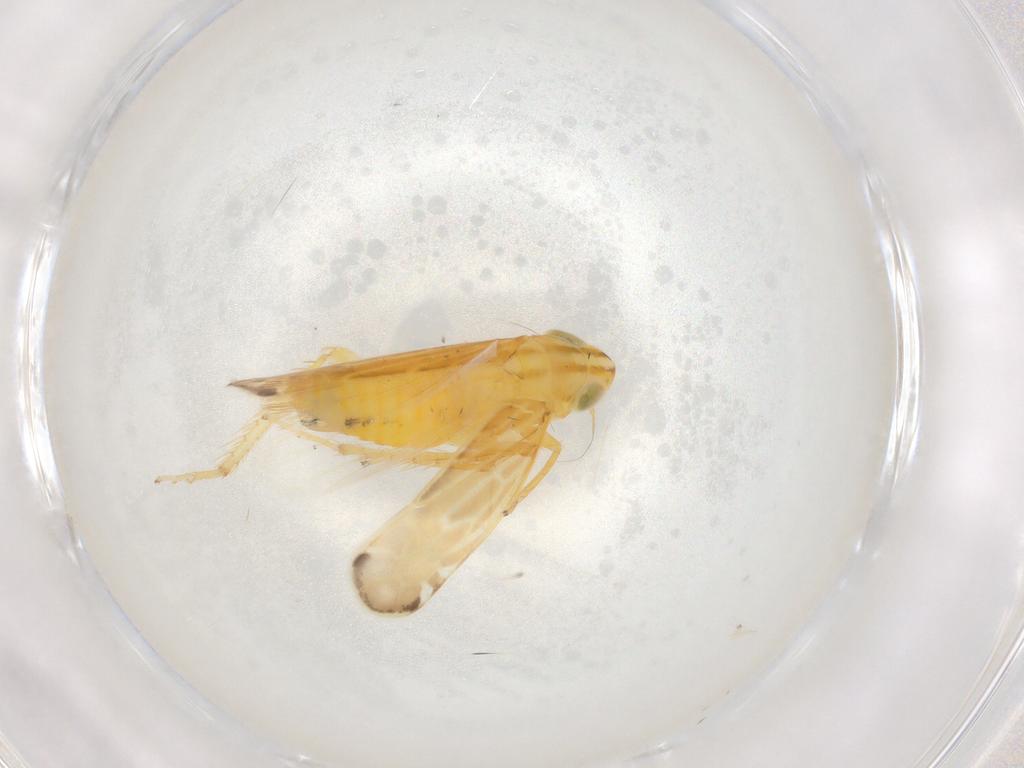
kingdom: Animalia
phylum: Arthropoda
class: Insecta
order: Hemiptera
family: Cicadellidae
